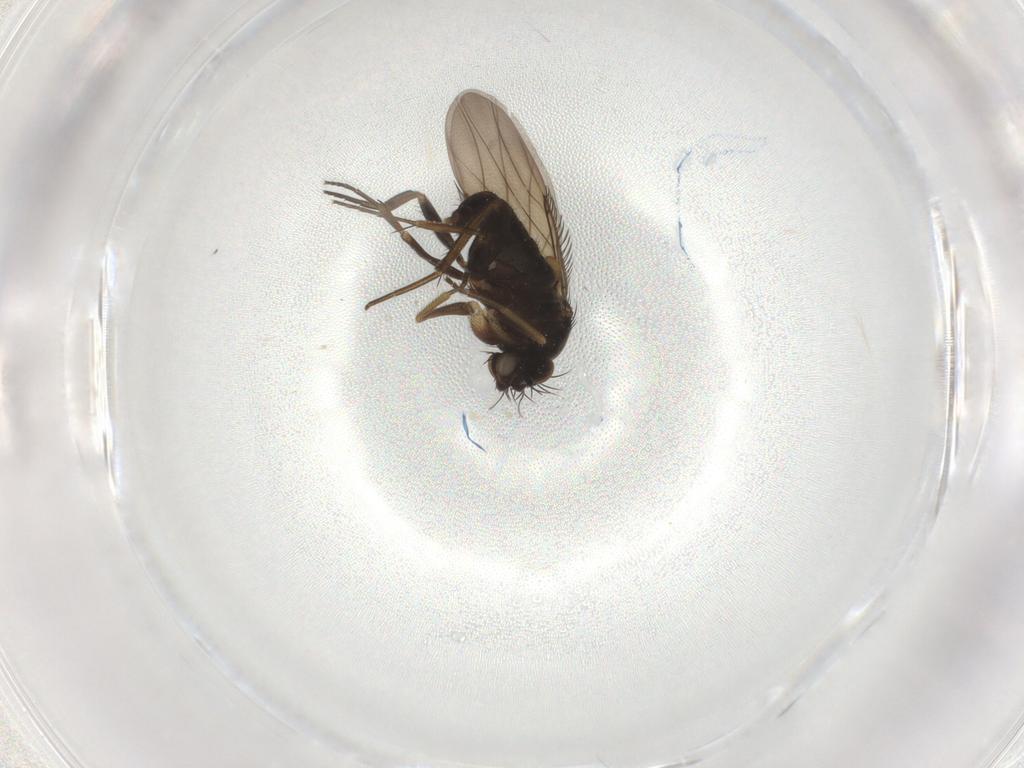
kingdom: Animalia
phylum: Arthropoda
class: Insecta
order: Diptera
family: Phoridae
